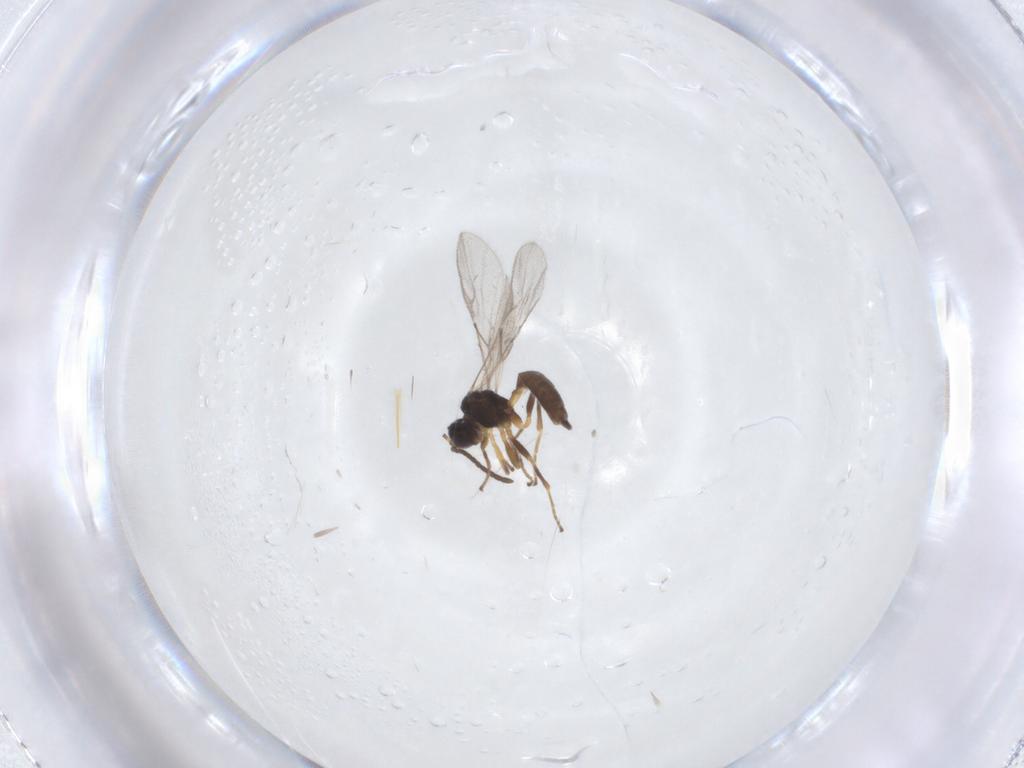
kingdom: Animalia
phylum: Arthropoda
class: Insecta
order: Hymenoptera
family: Braconidae
